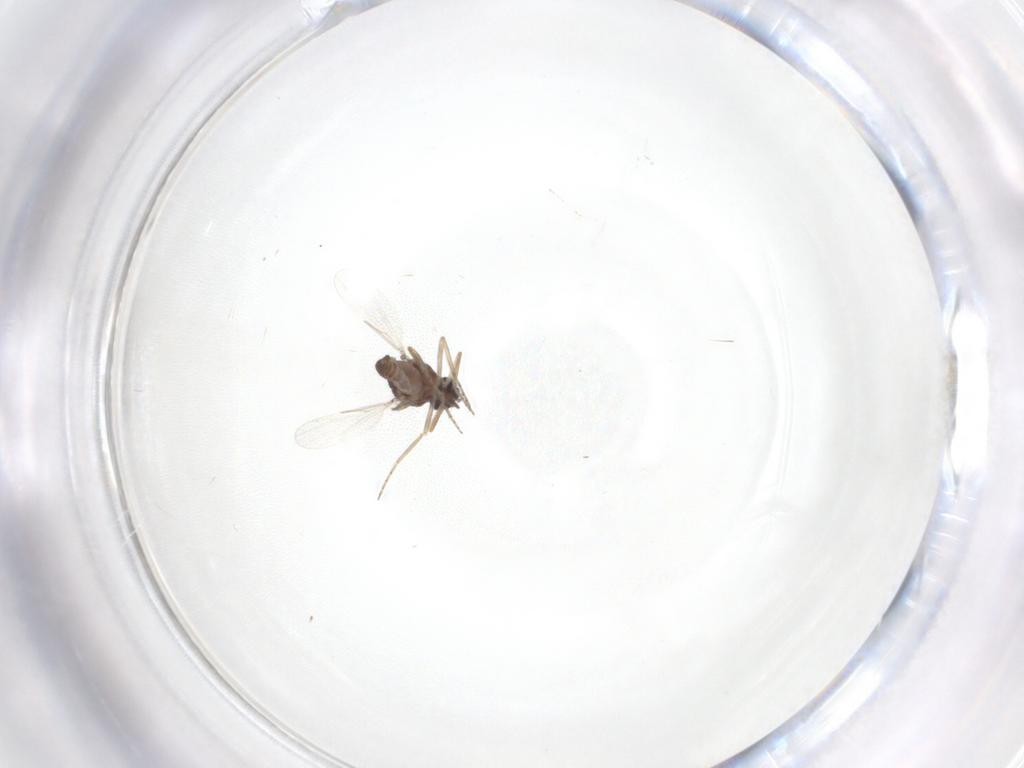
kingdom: Animalia
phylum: Arthropoda
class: Insecta
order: Diptera
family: Ceratopogonidae
